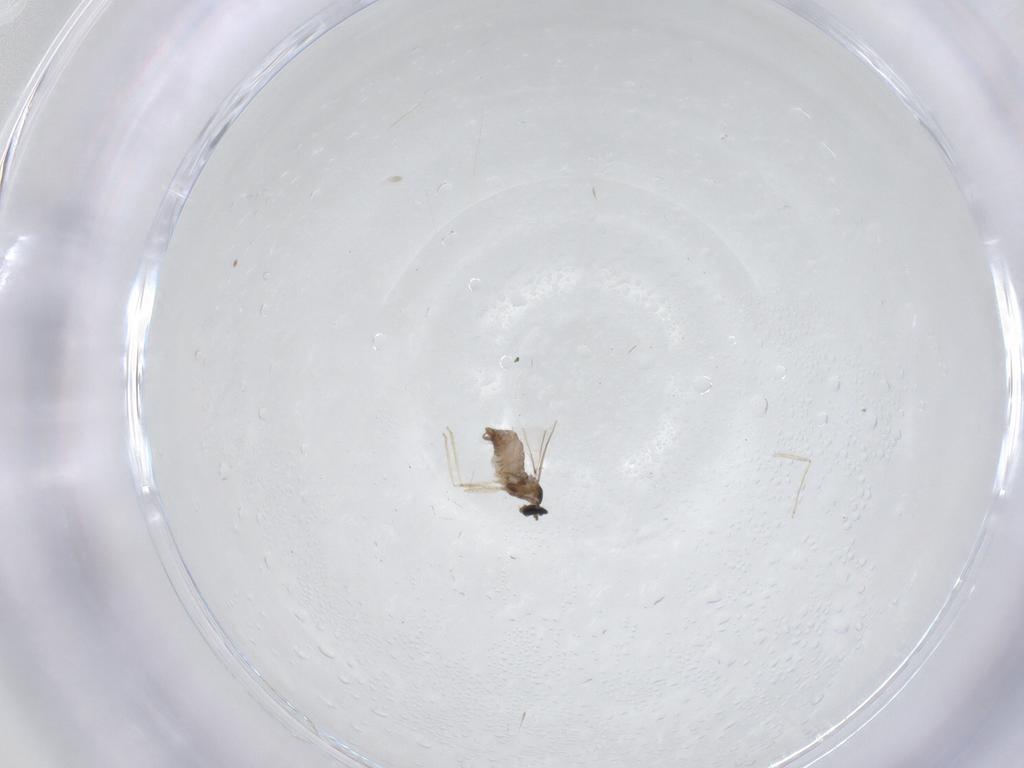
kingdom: Animalia
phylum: Arthropoda
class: Insecta
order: Diptera
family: Cecidomyiidae
